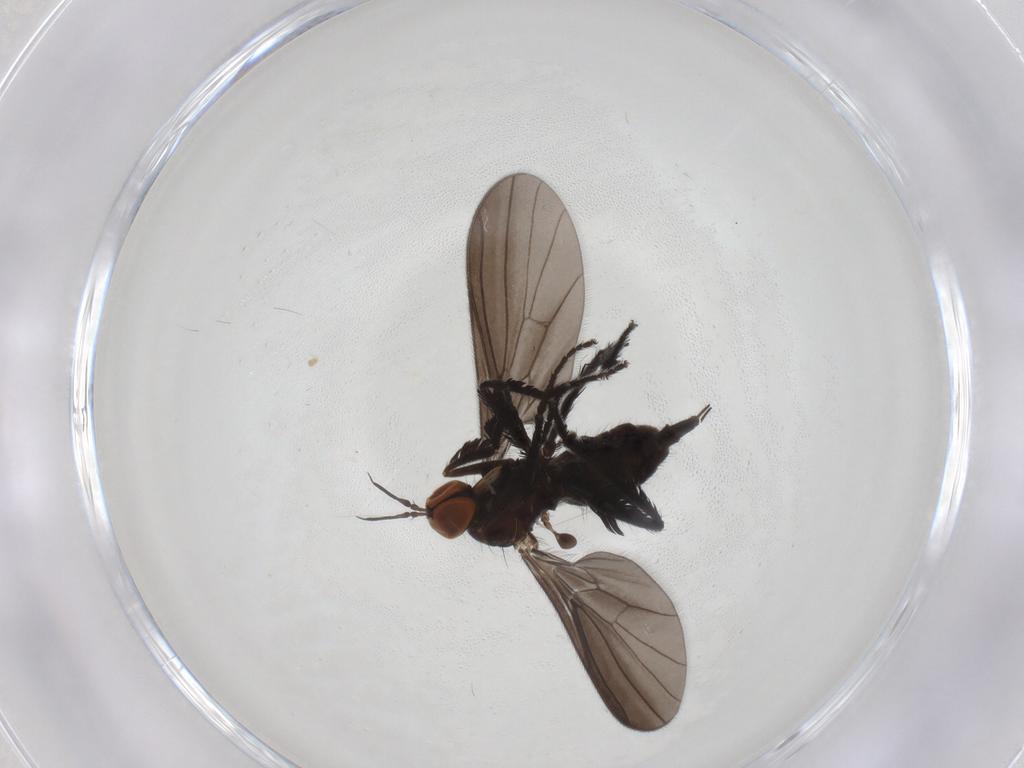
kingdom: Animalia
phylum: Arthropoda
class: Insecta
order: Diptera
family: Empididae
